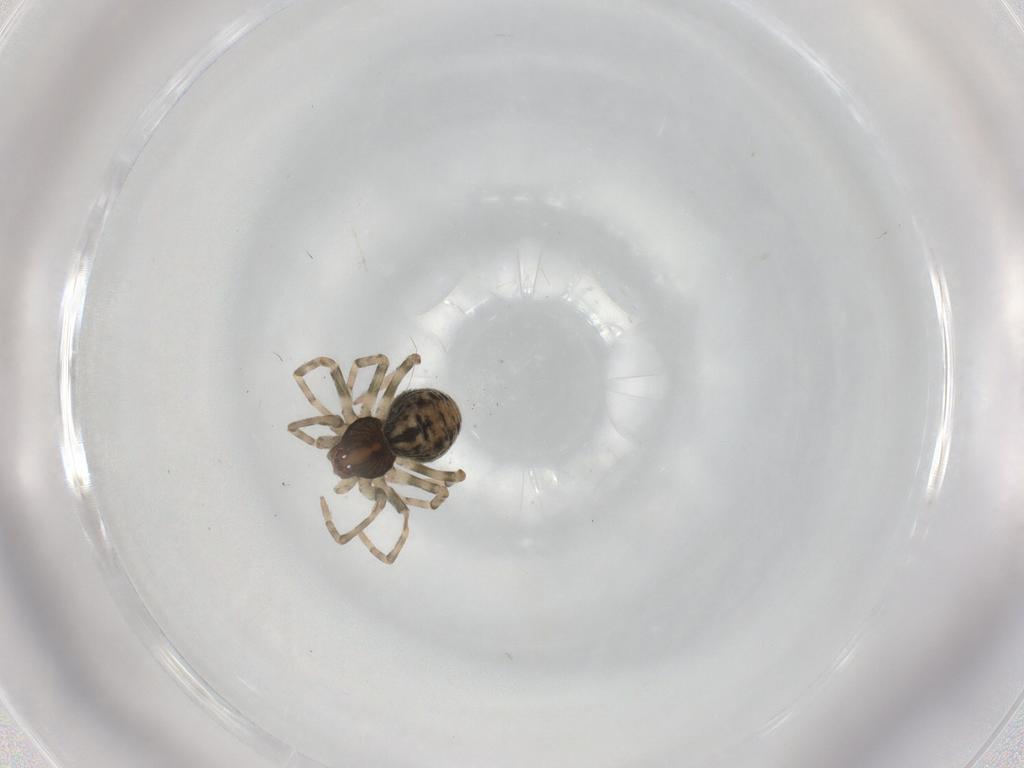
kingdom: Animalia
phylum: Arthropoda
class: Arachnida
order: Araneae
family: Dictynidae
